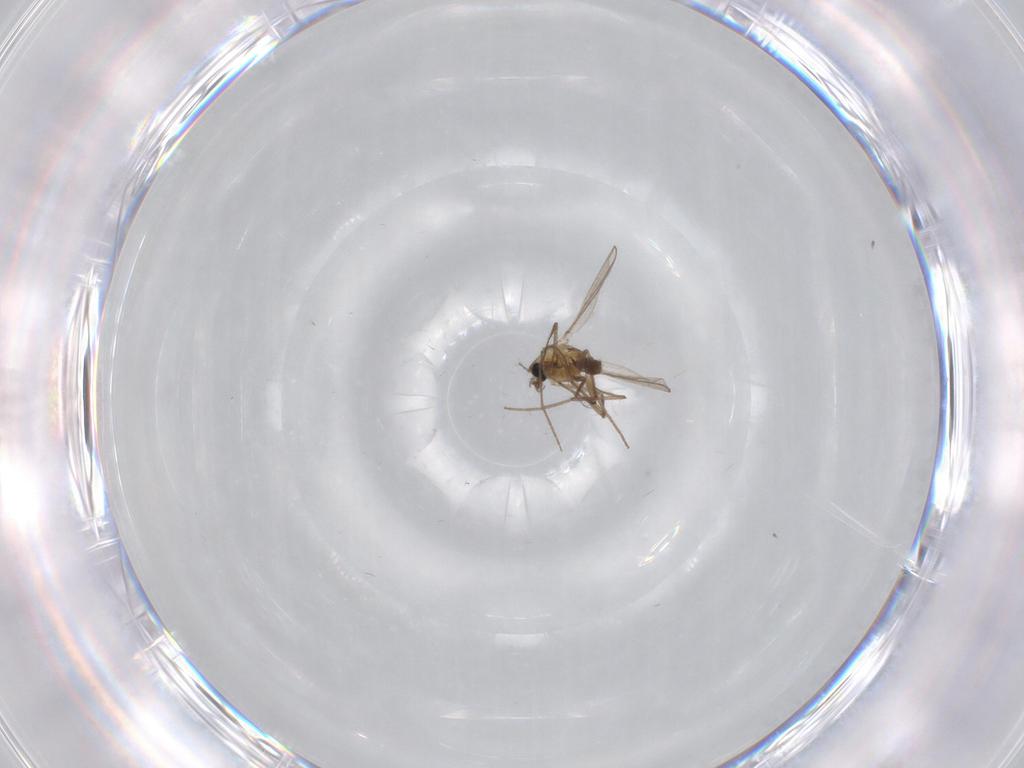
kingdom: Animalia
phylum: Arthropoda
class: Insecta
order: Diptera
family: Chironomidae
